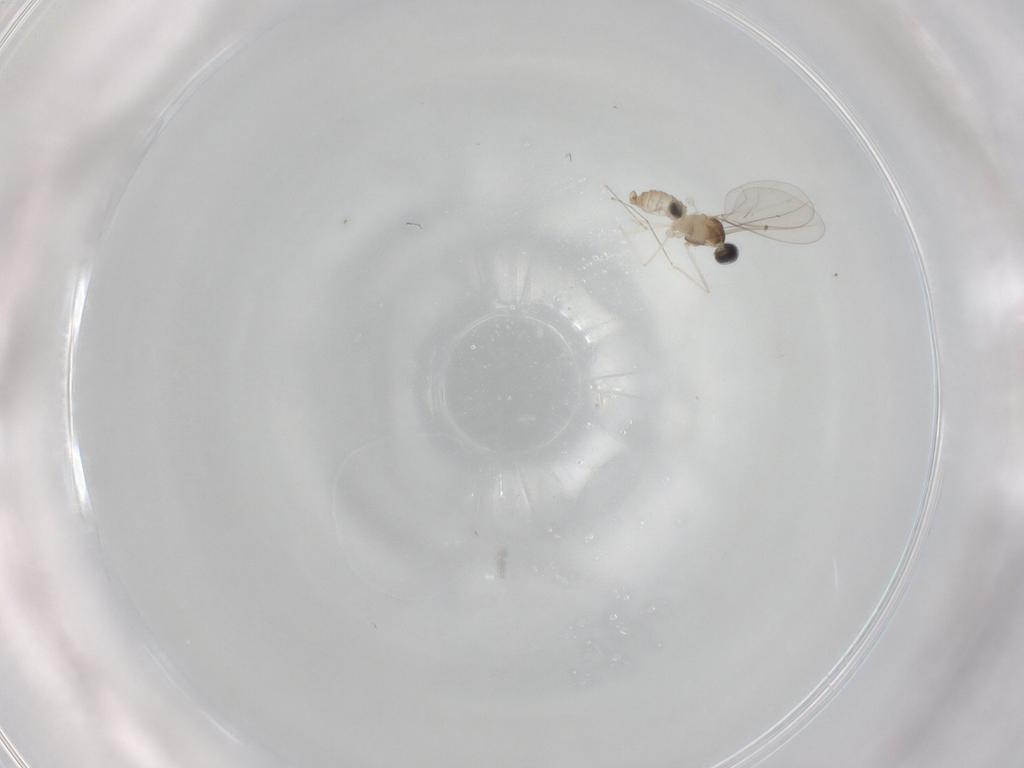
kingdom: Animalia
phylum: Arthropoda
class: Insecta
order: Diptera
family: Cecidomyiidae
